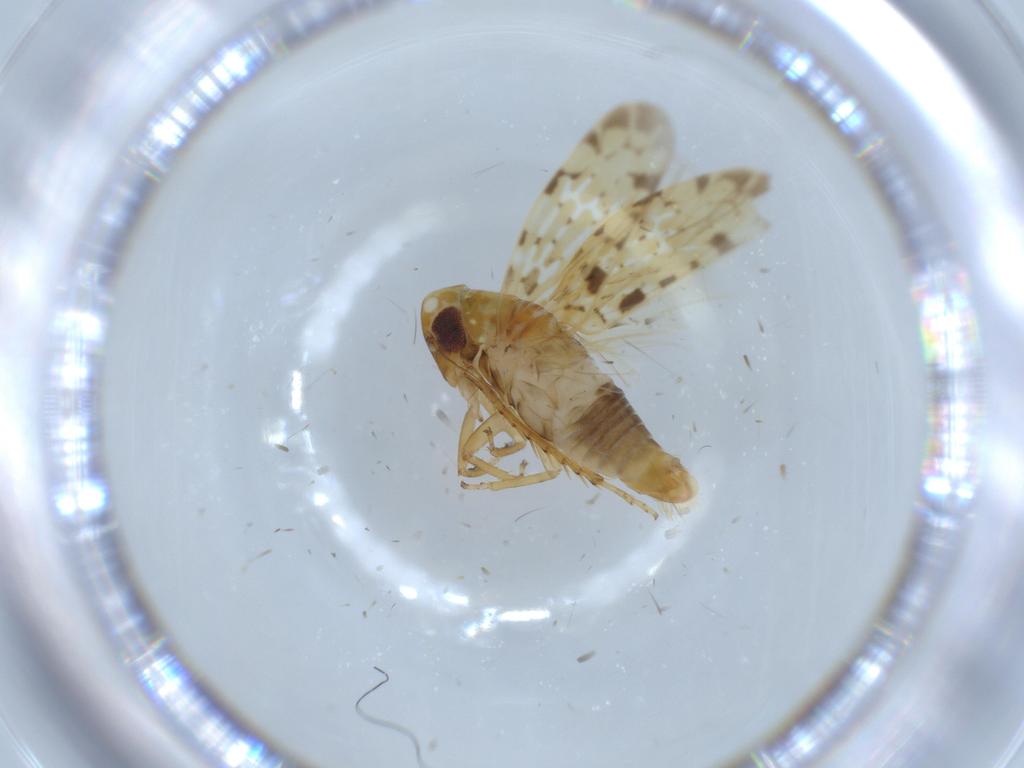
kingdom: Animalia
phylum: Arthropoda
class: Insecta
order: Hemiptera
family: Cicadellidae
